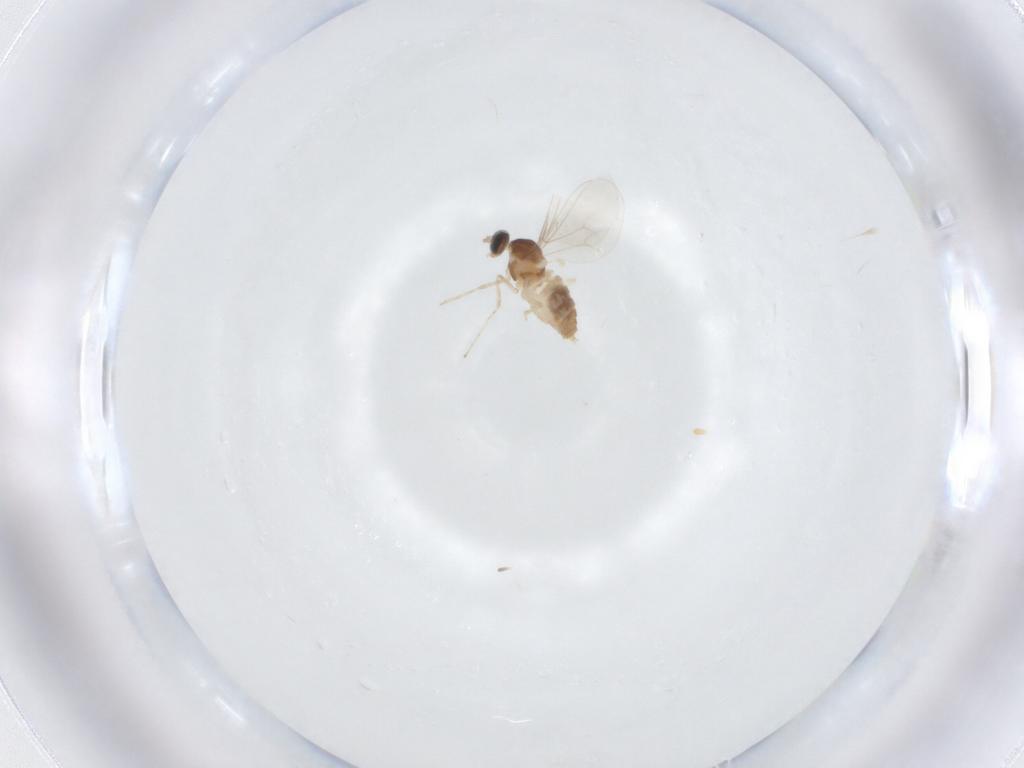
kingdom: Animalia
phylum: Arthropoda
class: Insecta
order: Diptera
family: Cecidomyiidae
